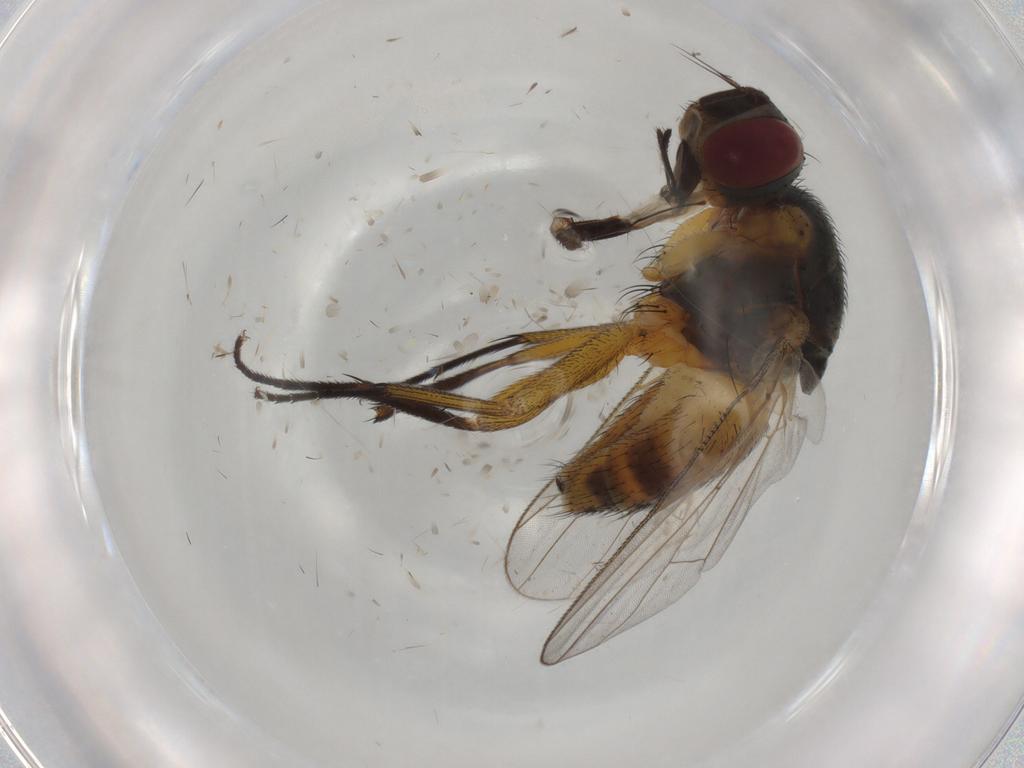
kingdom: Animalia
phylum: Arthropoda
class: Insecta
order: Diptera
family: Muscidae
